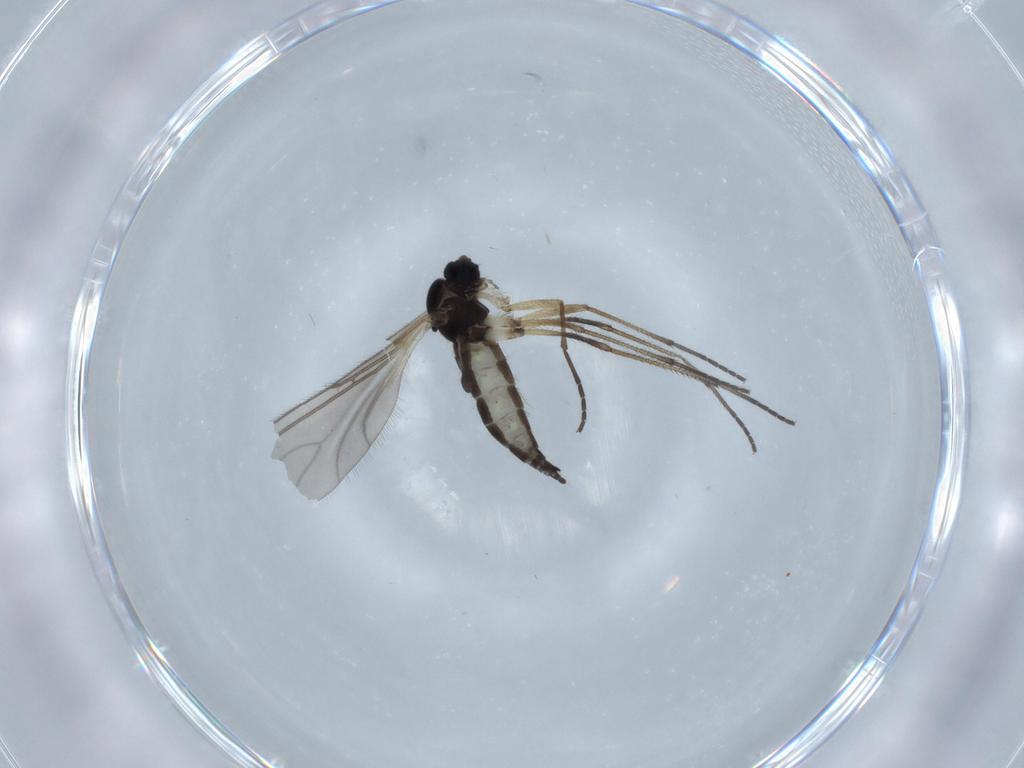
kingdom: Animalia
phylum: Arthropoda
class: Insecta
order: Diptera
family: Sciaridae
